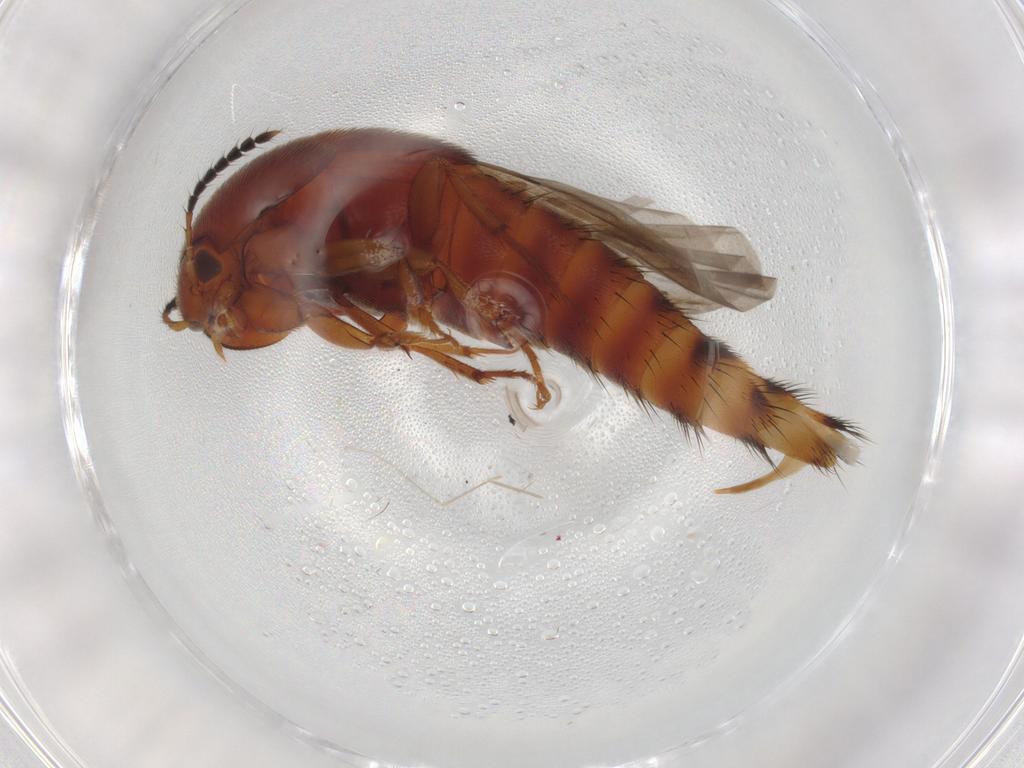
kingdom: Animalia
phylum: Arthropoda
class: Insecta
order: Coleoptera
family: Staphylinidae
